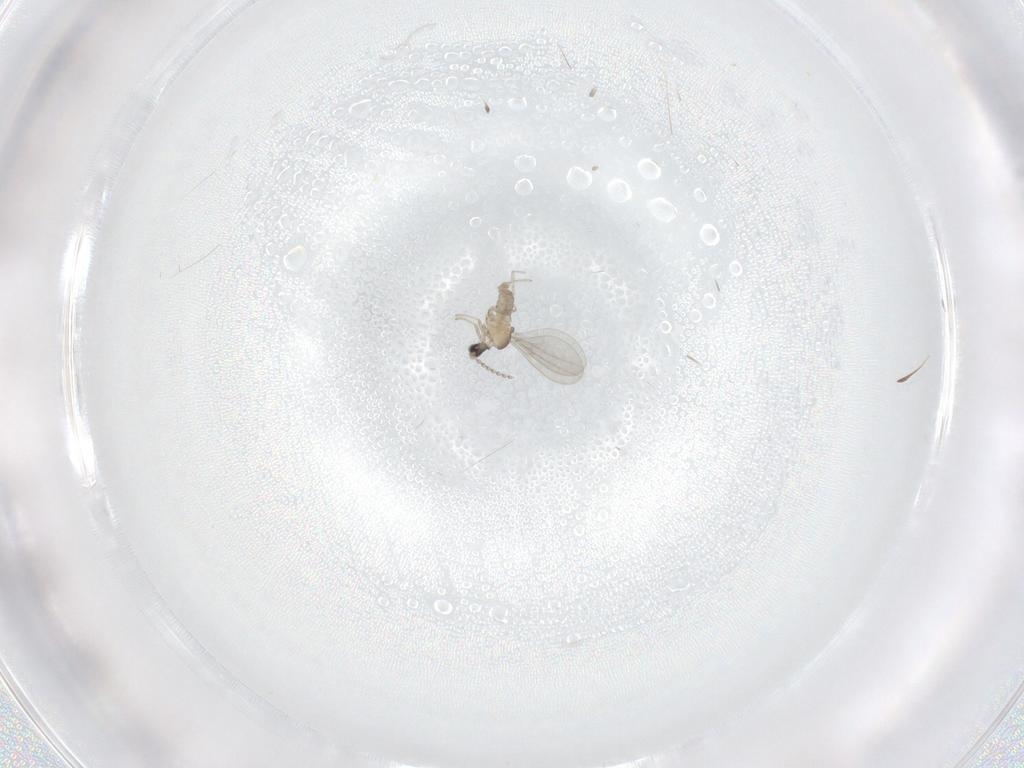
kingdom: Animalia
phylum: Arthropoda
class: Insecta
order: Diptera
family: Cecidomyiidae
